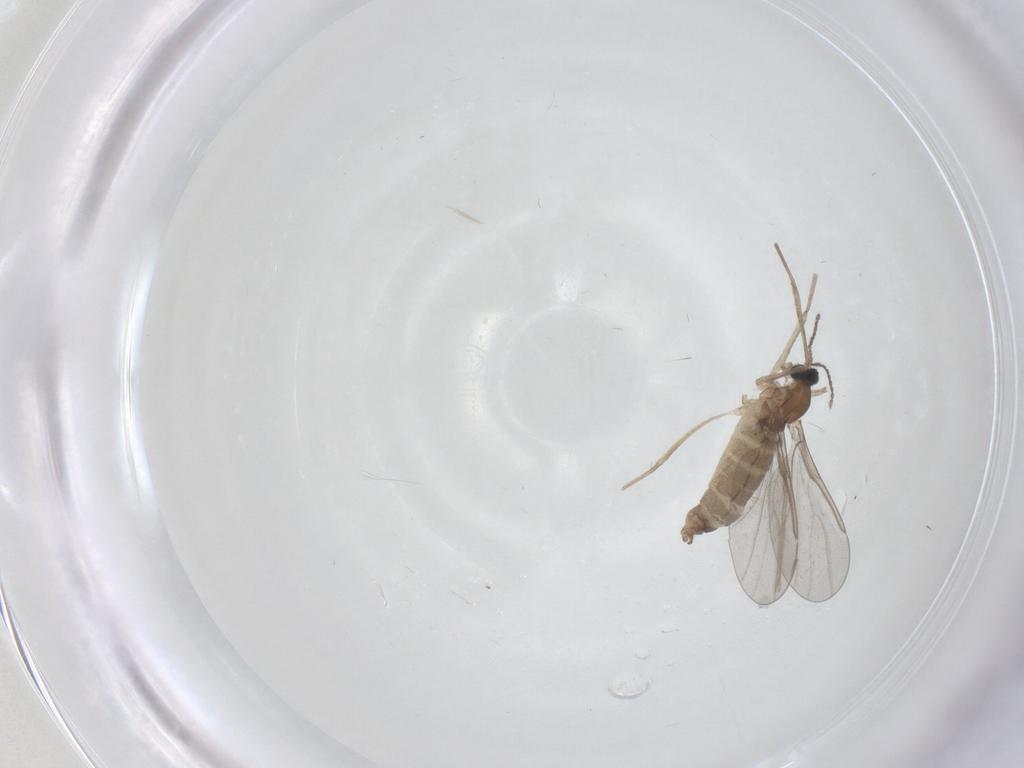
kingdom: Animalia
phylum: Arthropoda
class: Insecta
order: Diptera
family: Cecidomyiidae
